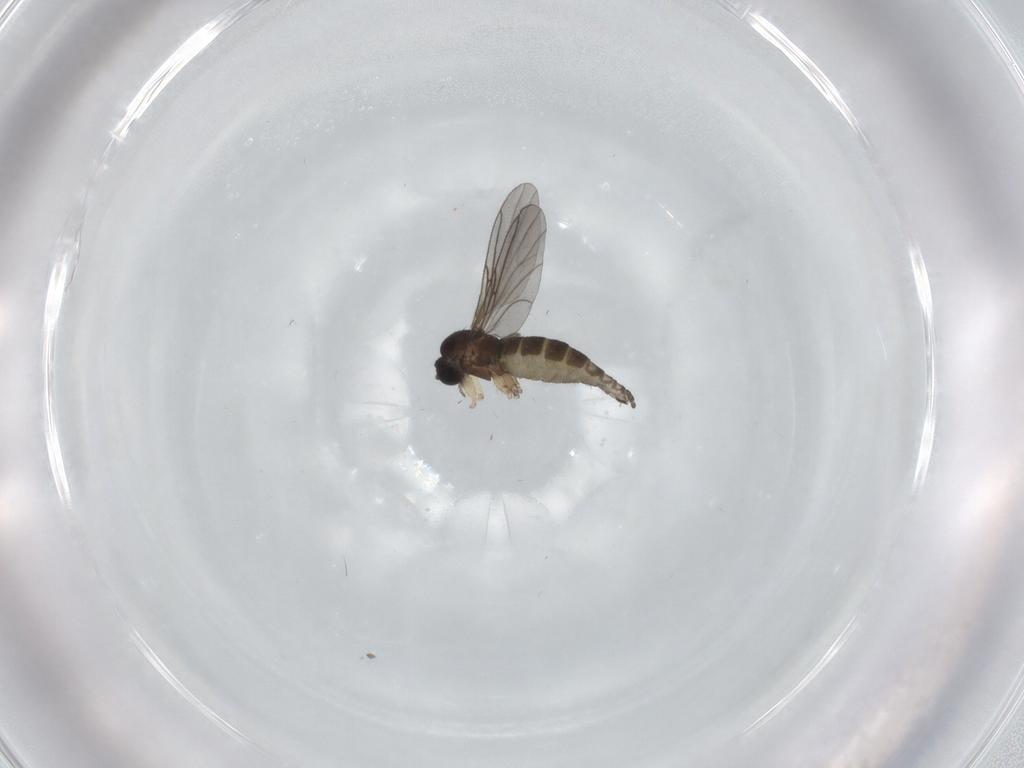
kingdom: Animalia
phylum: Arthropoda
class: Insecta
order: Diptera
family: Sciaridae
